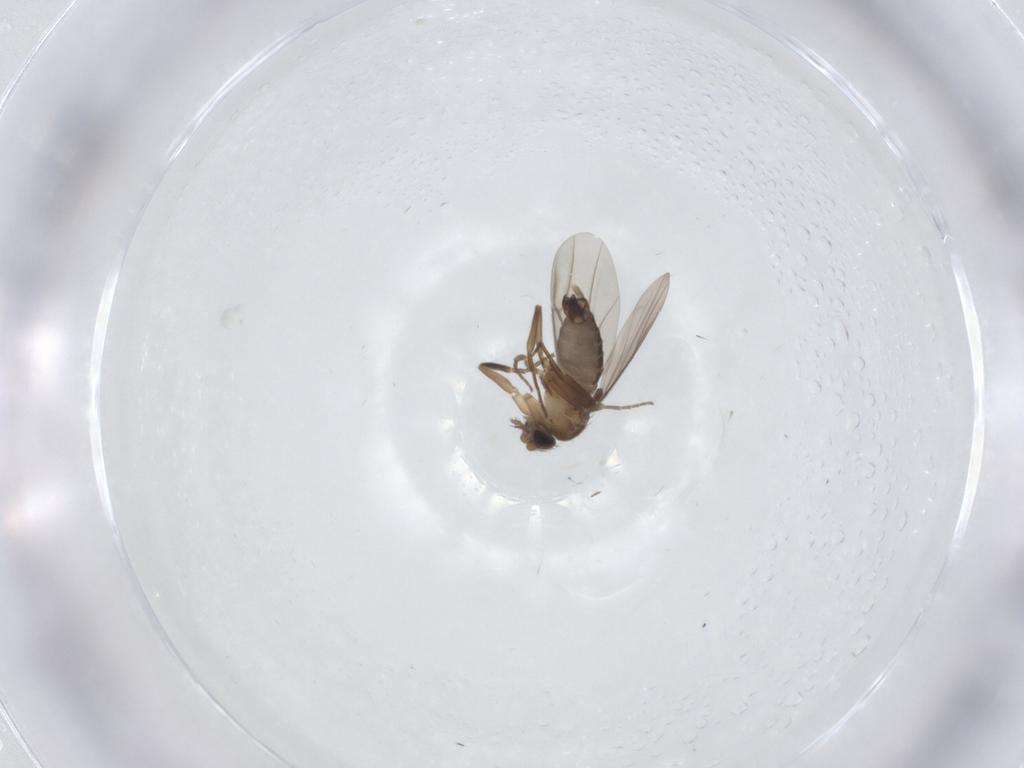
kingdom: Animalia
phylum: Arthropoda
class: Insecta
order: Diptera
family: Phoridae
